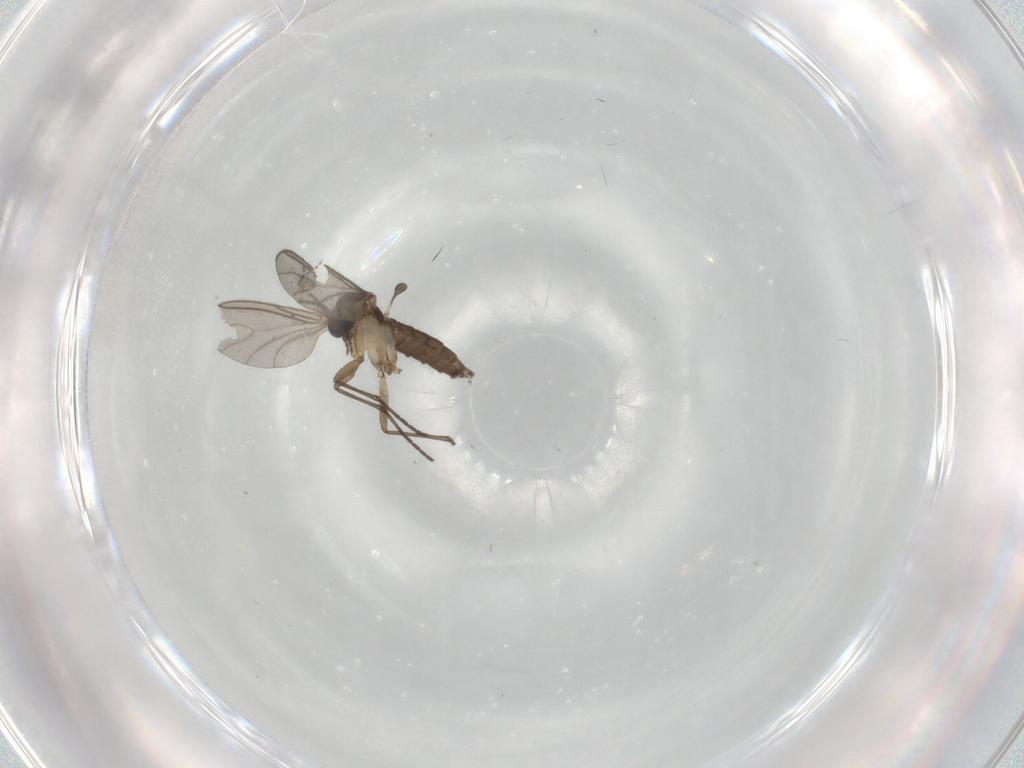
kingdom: Animalia
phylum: Arthropoda
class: Insecta
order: Diptera
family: Sciaridae
